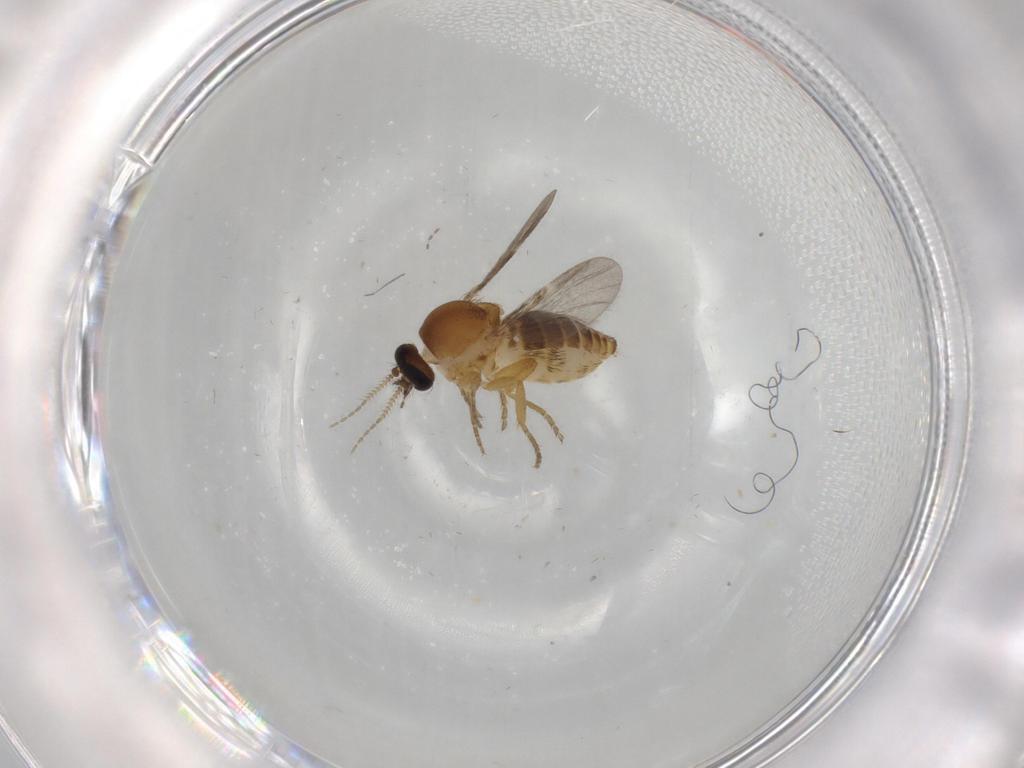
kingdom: Animalia
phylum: Arthropoda
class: Insecta
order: Diptera
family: Ceratopogonidae
